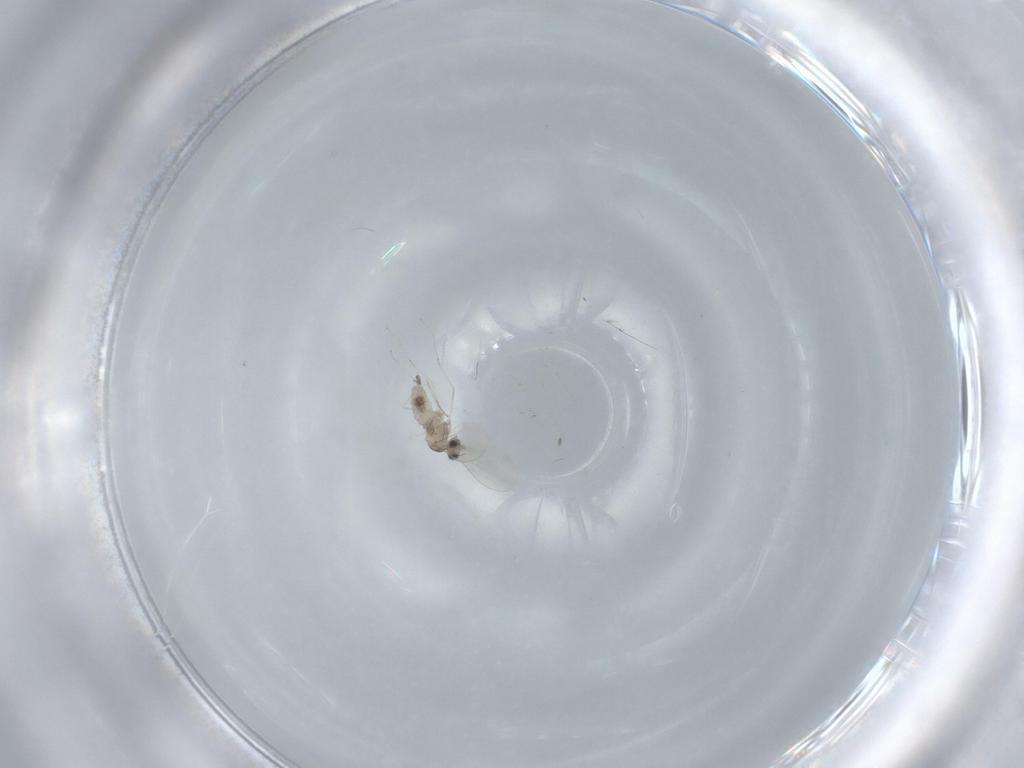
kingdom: Animalia
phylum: Arthropoda
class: Insecta
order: Diptera
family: Cecidomyiidae
